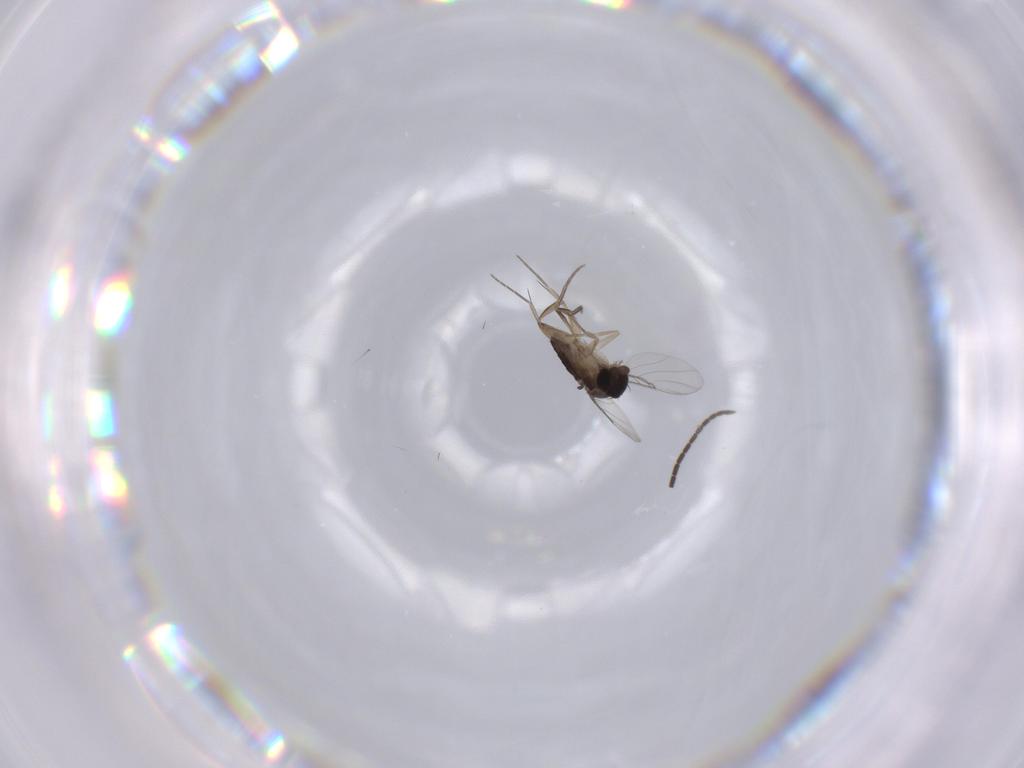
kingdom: Animalia
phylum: Arthropoda
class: Insecta
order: Diptera
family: Phoridae
